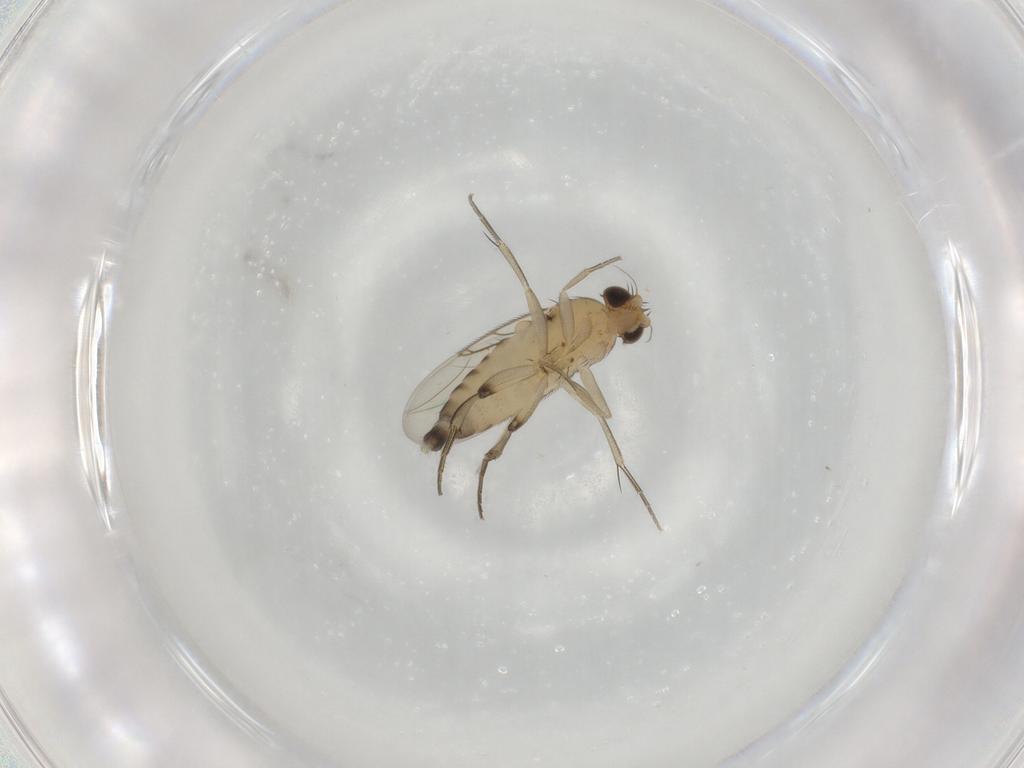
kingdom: Animalia
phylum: Arthropoda
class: Insecta
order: Diptera
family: Phoridae
